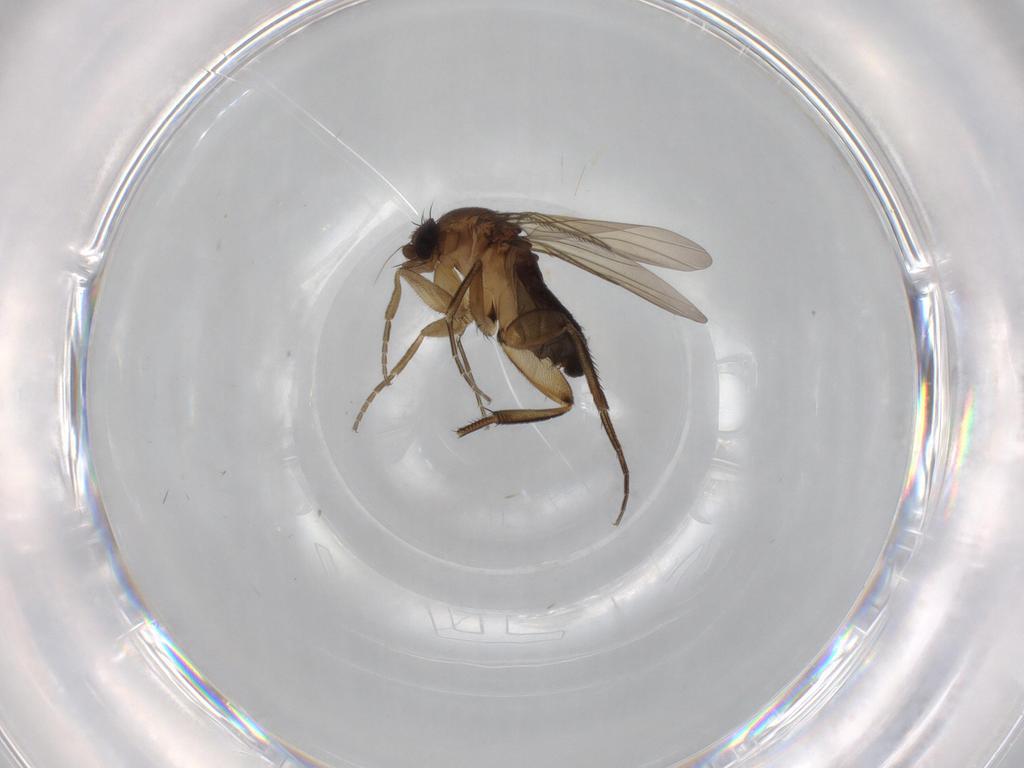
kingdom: Animalia
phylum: Arthropoda
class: Insecta
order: Diptera
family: Phoridae
